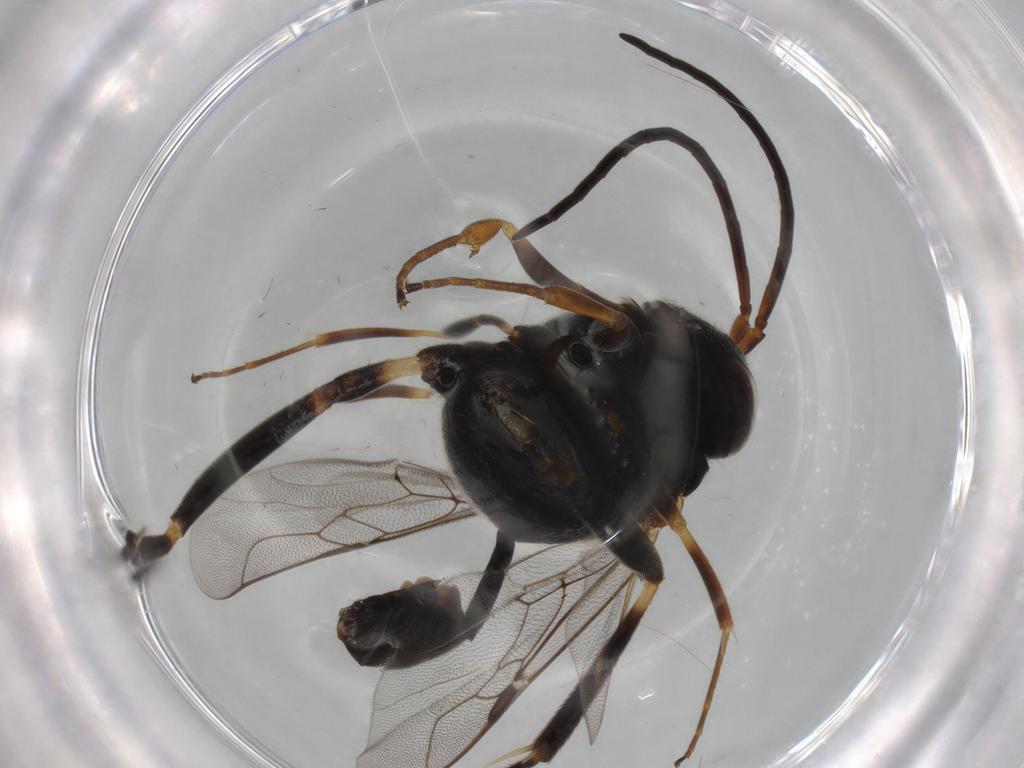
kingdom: Animalia
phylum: Arthropoda
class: Insecta
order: Hymenoptera
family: Evaniidae
